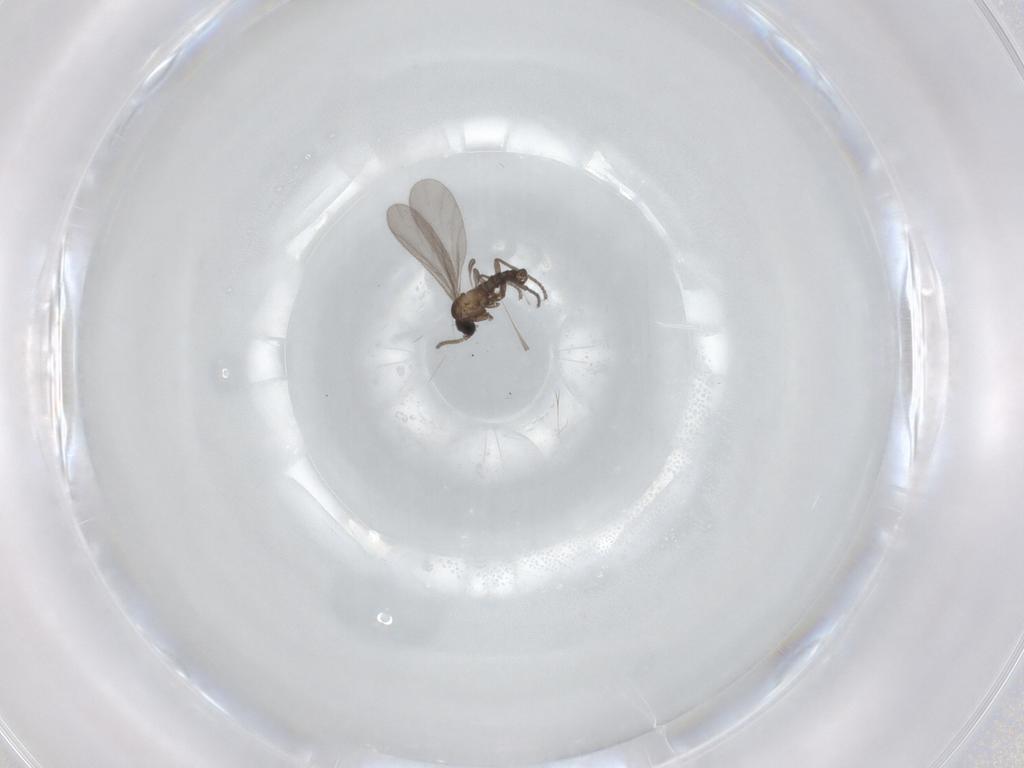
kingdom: Animalia
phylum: Arthropoda
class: Insecta
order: Diptera
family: Sciaridae
